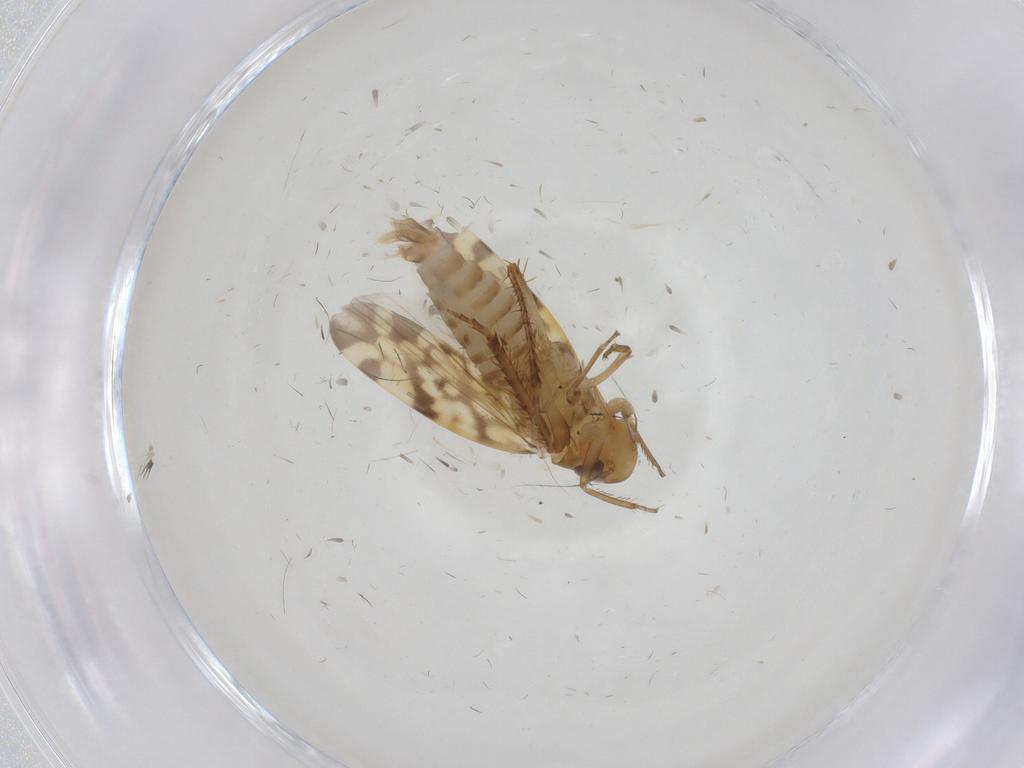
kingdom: Animalia
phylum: Arthropoda
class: Insecta
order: Hemiptera
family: Cicadellidae
